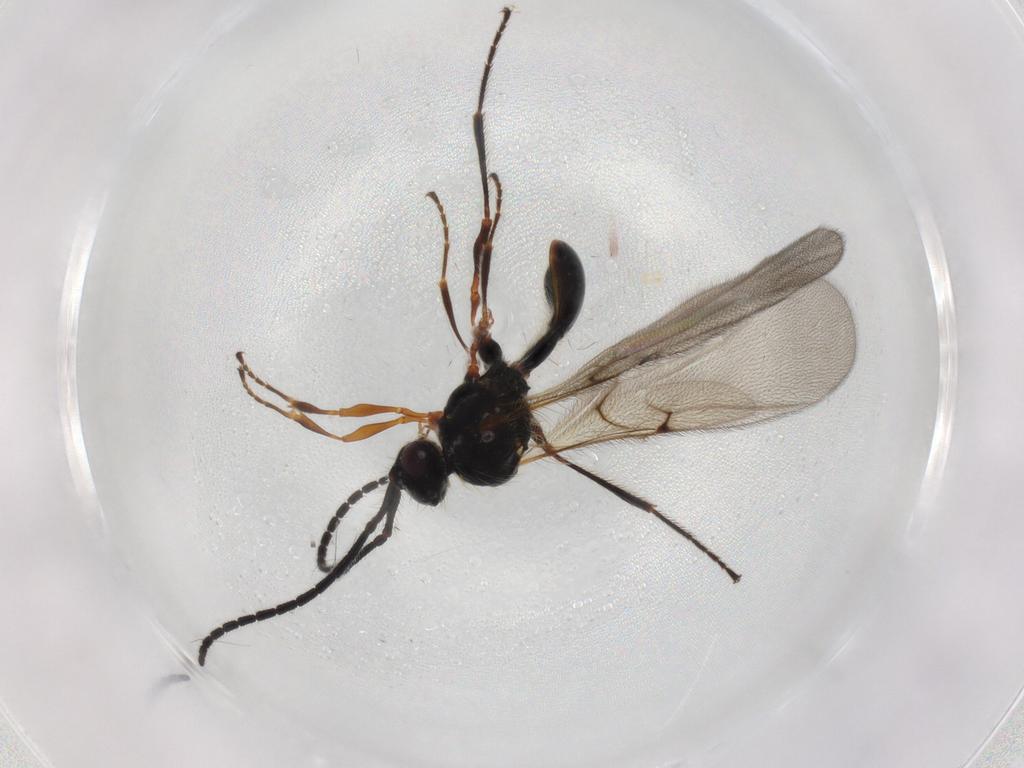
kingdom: Animalia
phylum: Arthropoda
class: Insecta
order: Hymenoptera
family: Diapriidae
